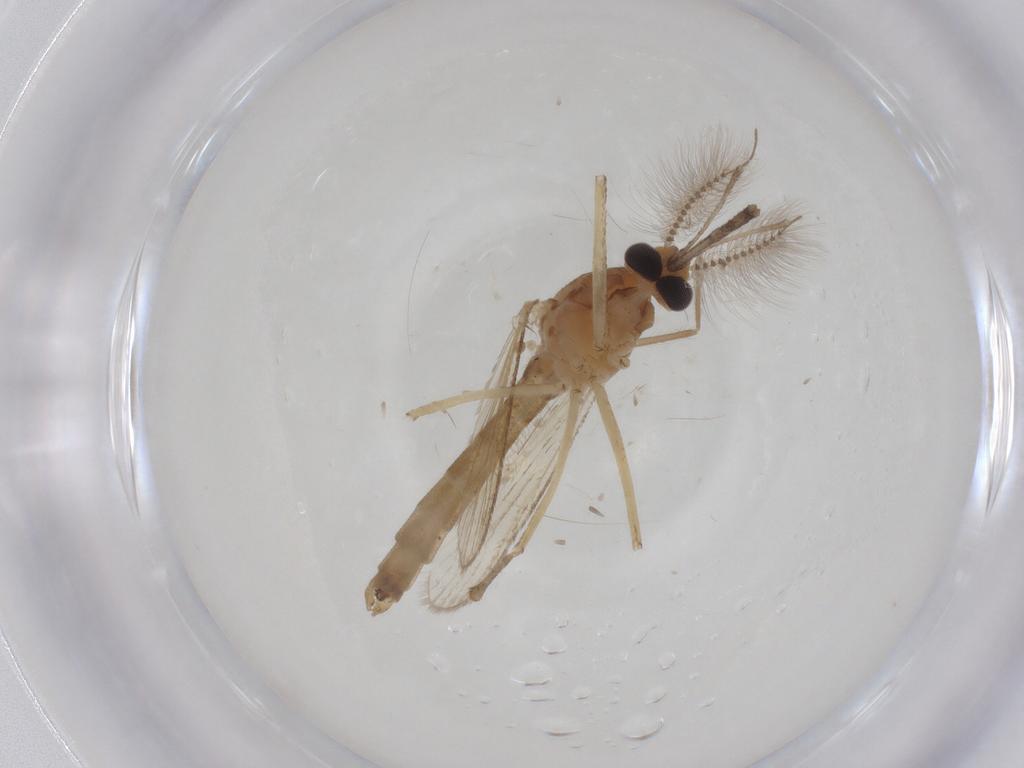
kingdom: Animalia
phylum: Arthropoda
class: Insecta
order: Diptera
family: Culicidae
